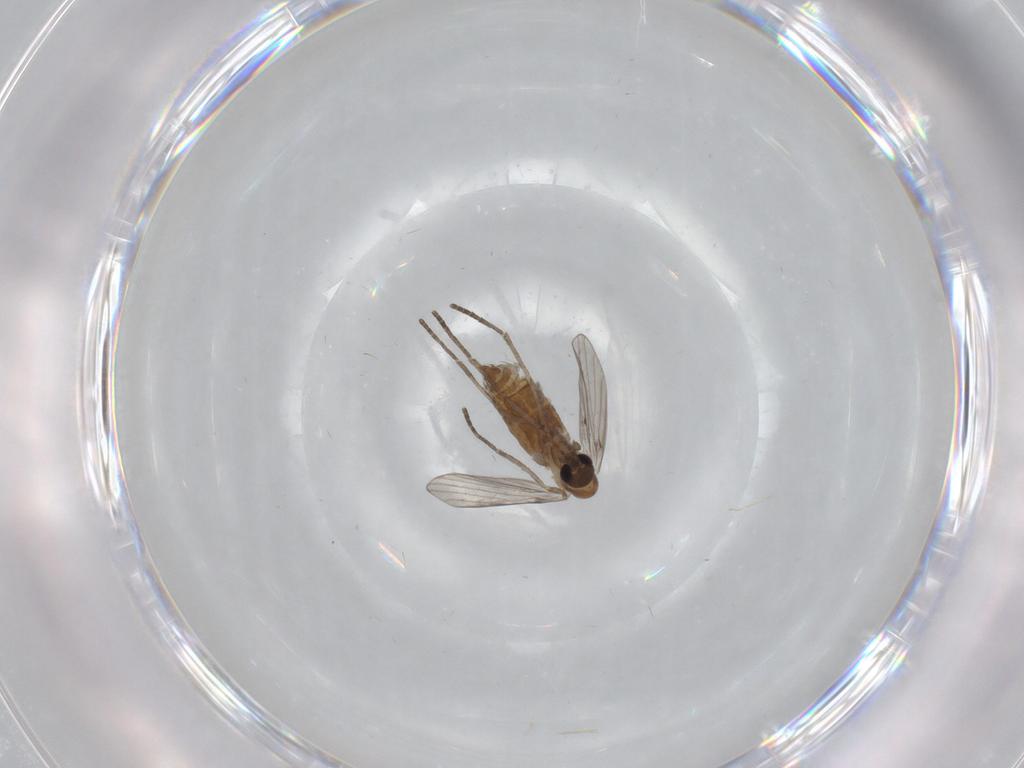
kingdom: Animalia
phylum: Arthropoda
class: Insecta
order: Diptera
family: Psychodidae
